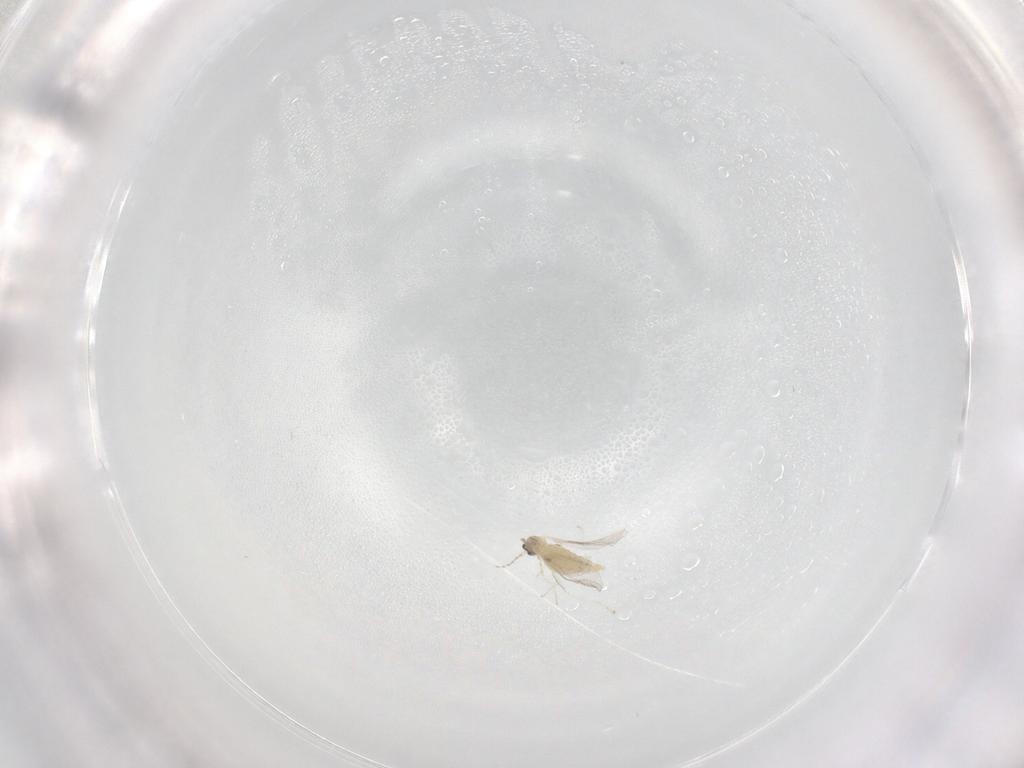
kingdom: Animalia
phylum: Arthropoda
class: Insecta
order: Diptera
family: Cecidomyiidae
